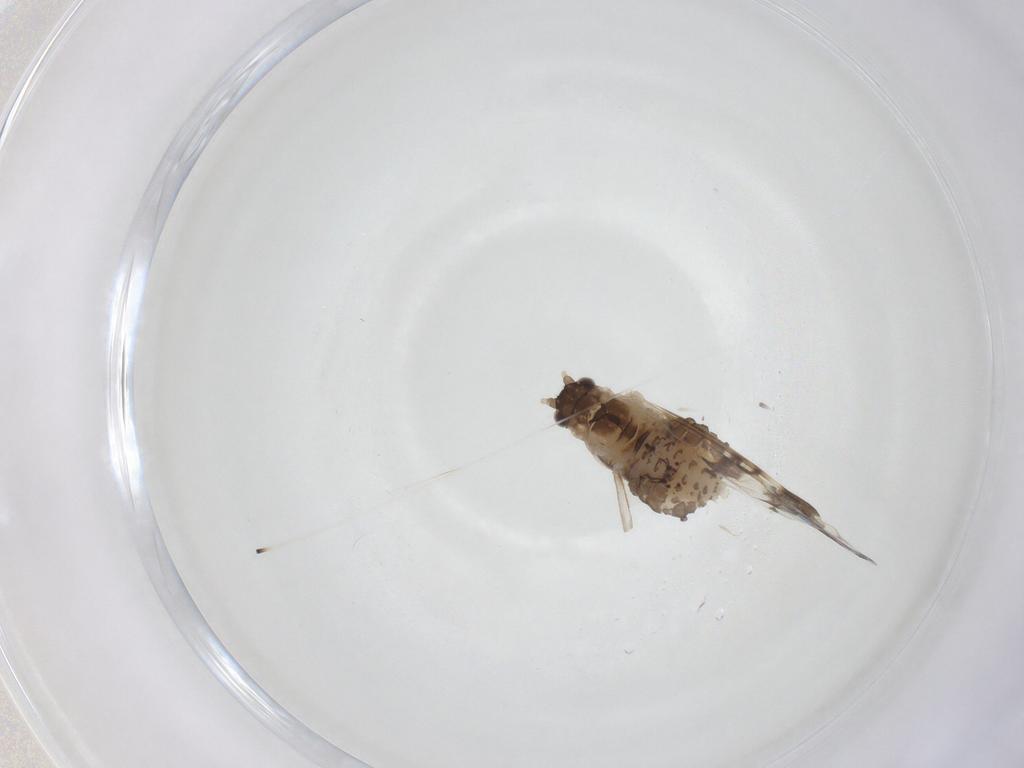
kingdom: Animalia
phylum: Arthropoda
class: Insecta
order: Hemiptera
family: Aphididae
